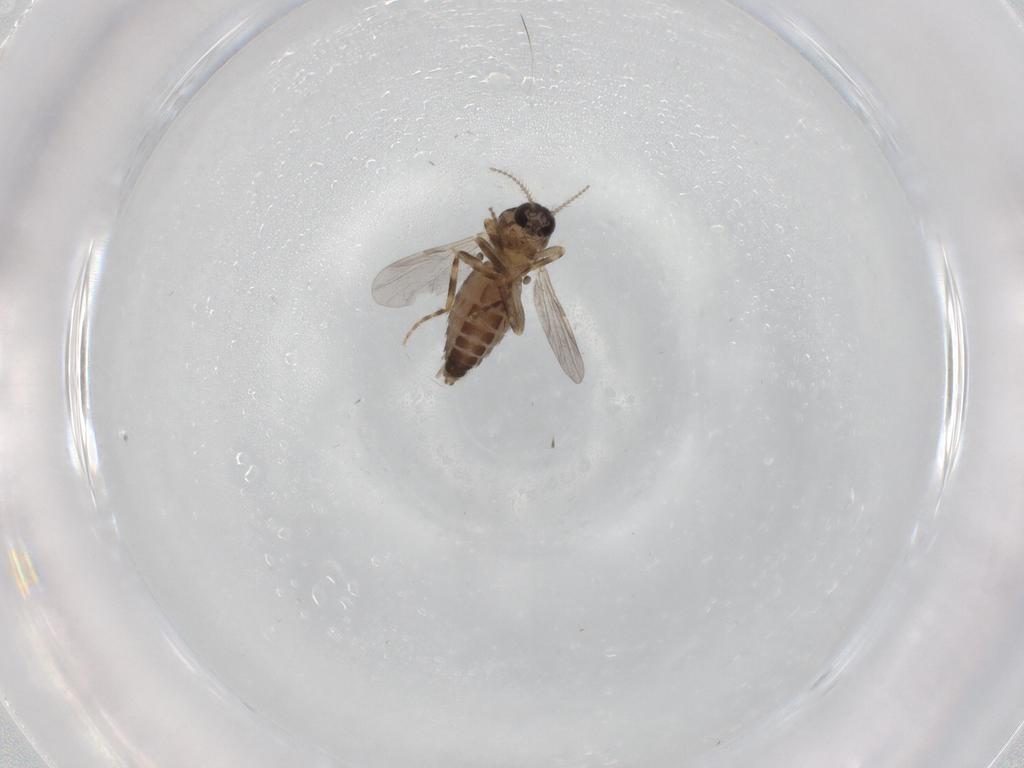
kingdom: Animalia
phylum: Arthropoda
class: Insecta
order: Diptera
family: Ceratopogonidae
